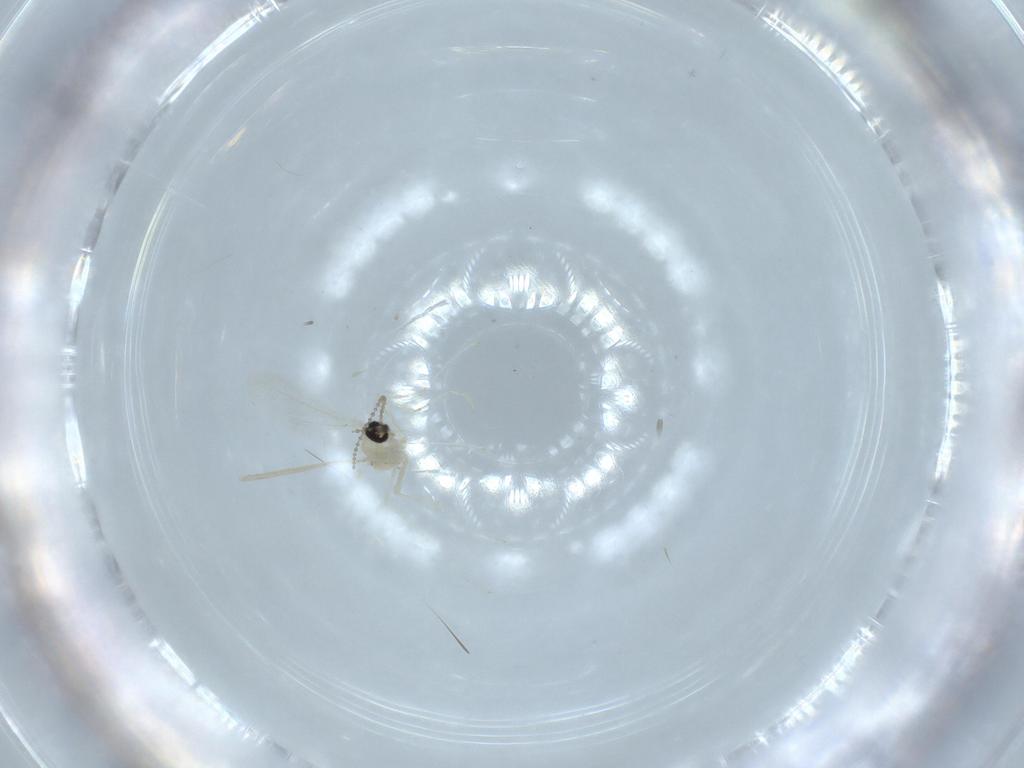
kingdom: Animalia
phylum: Arthropoda
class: Insecta
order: Diptera
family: Cecidomyiidae
